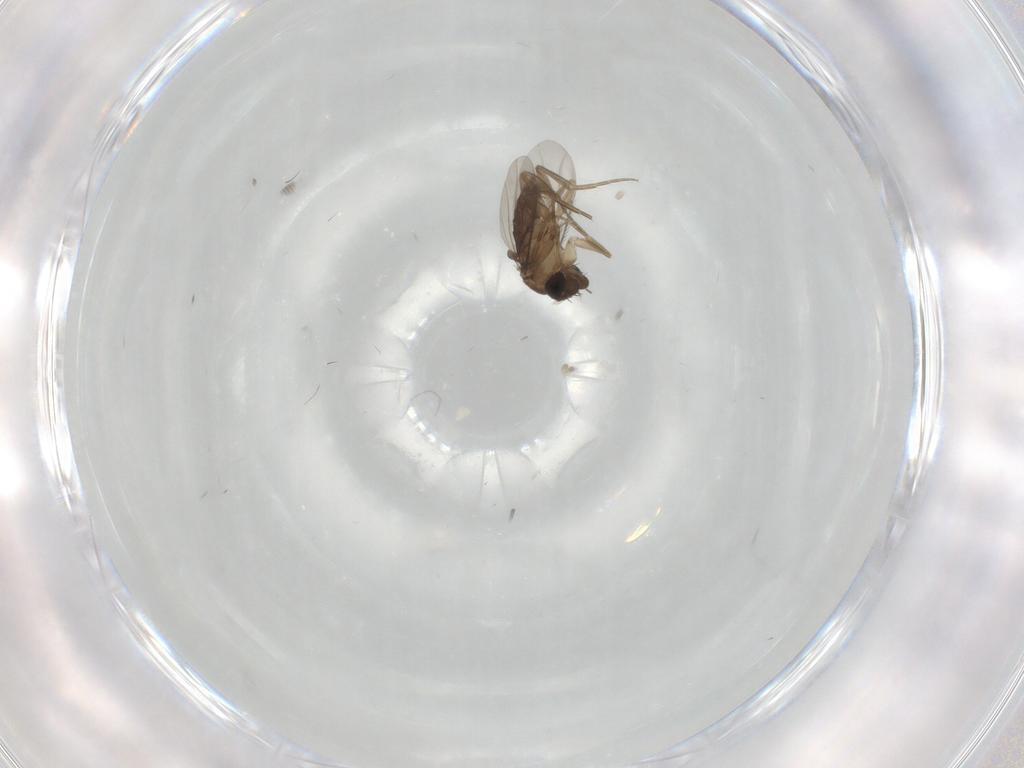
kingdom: Animalia
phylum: Arthropoda
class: Insecta
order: Diptera
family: Phoridae
